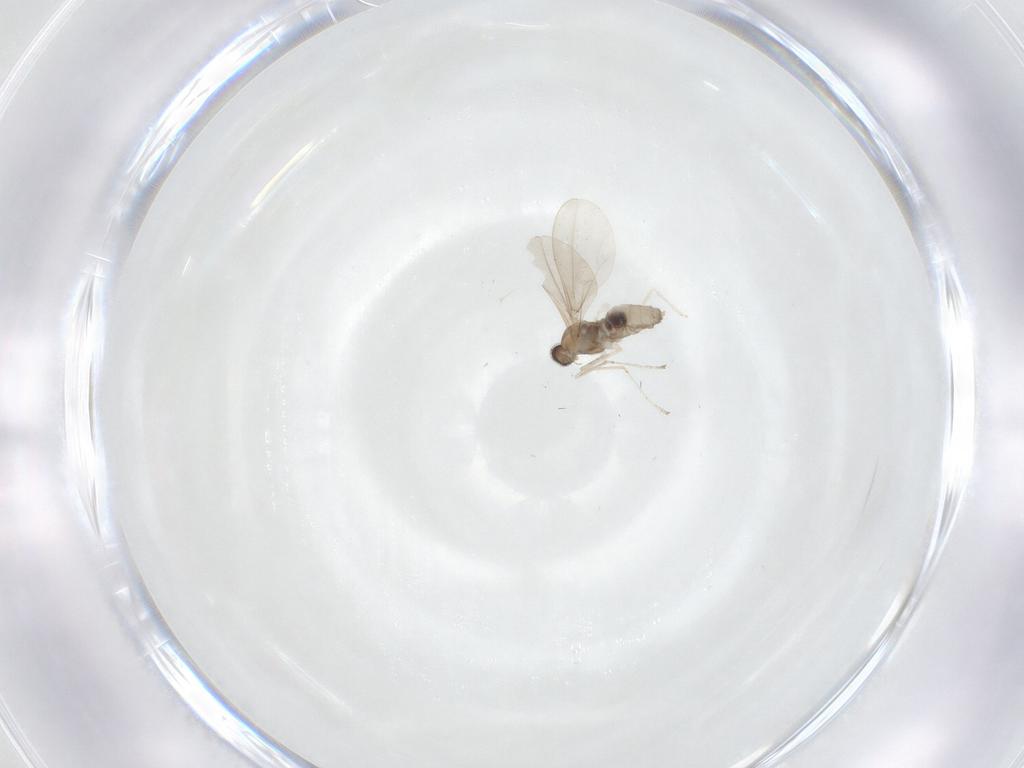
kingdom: Animalia
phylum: Arthropoda
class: Insecta
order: Diptera
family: Cecidomyiidae
